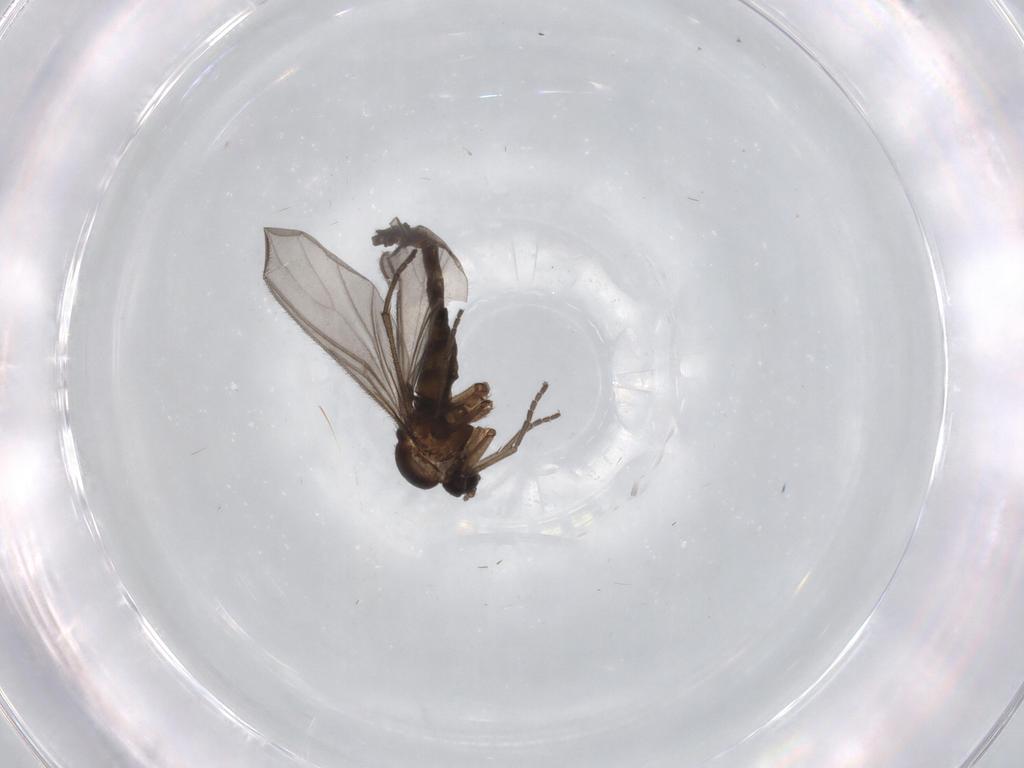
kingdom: Animalia
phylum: Arthropoda
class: Insecta
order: Diptera
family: Sciaridae
